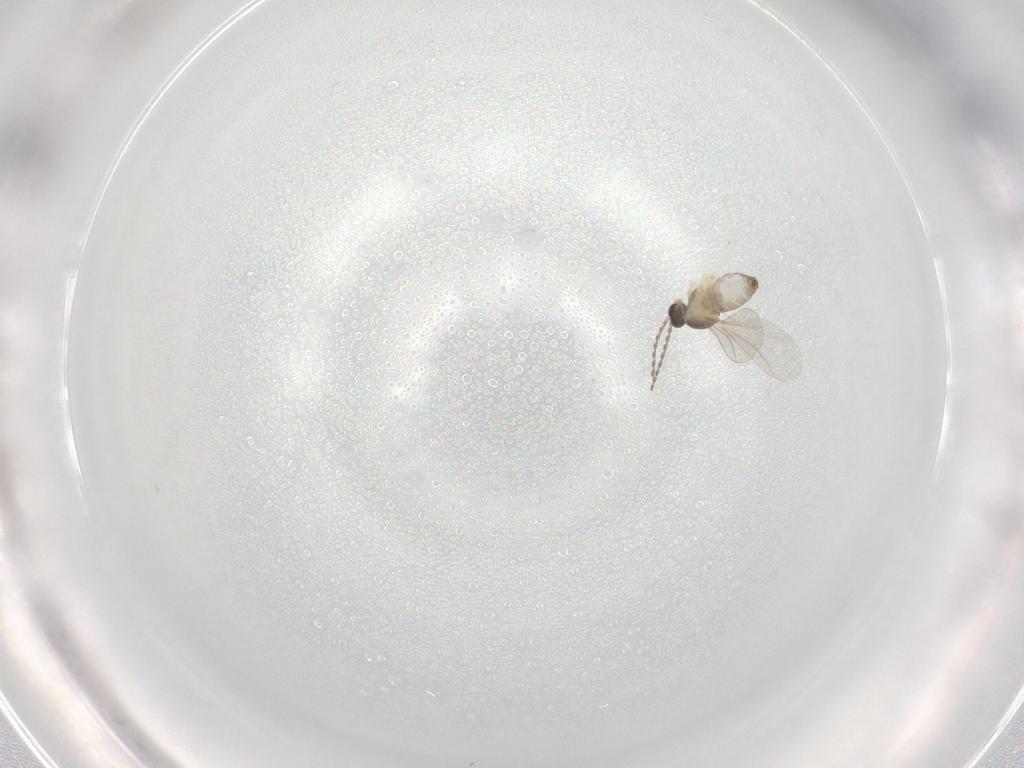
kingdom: Animalia
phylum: Arthropoda
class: Insecta
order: Diptera
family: Cecidomyiidae
